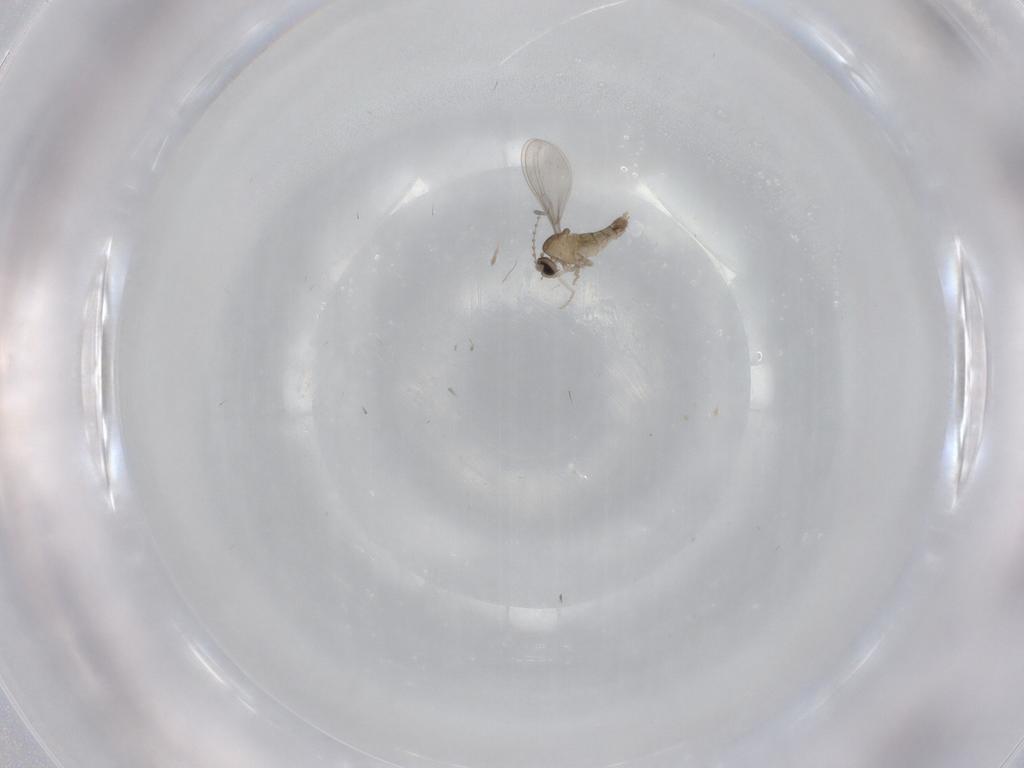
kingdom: Animalia
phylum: Arthropoda
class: Insecta
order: Diptera
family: Cecidomyiidae
